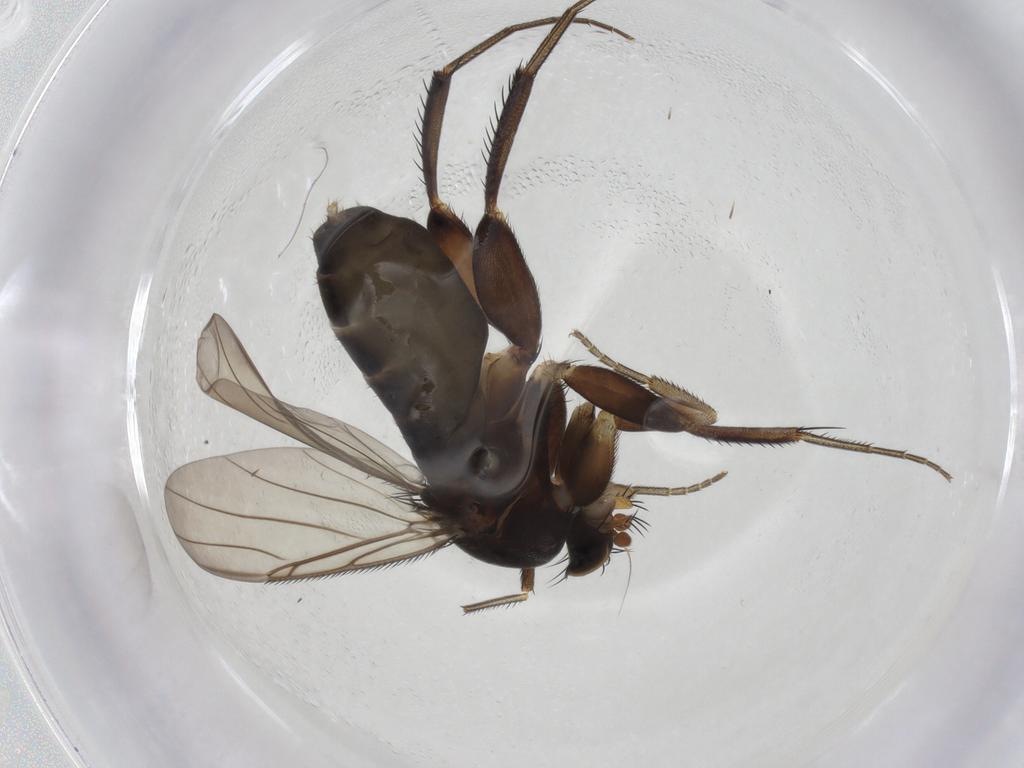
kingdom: Animalia
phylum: Arthropoda
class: Insecta
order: Diptera
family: Phoridae
